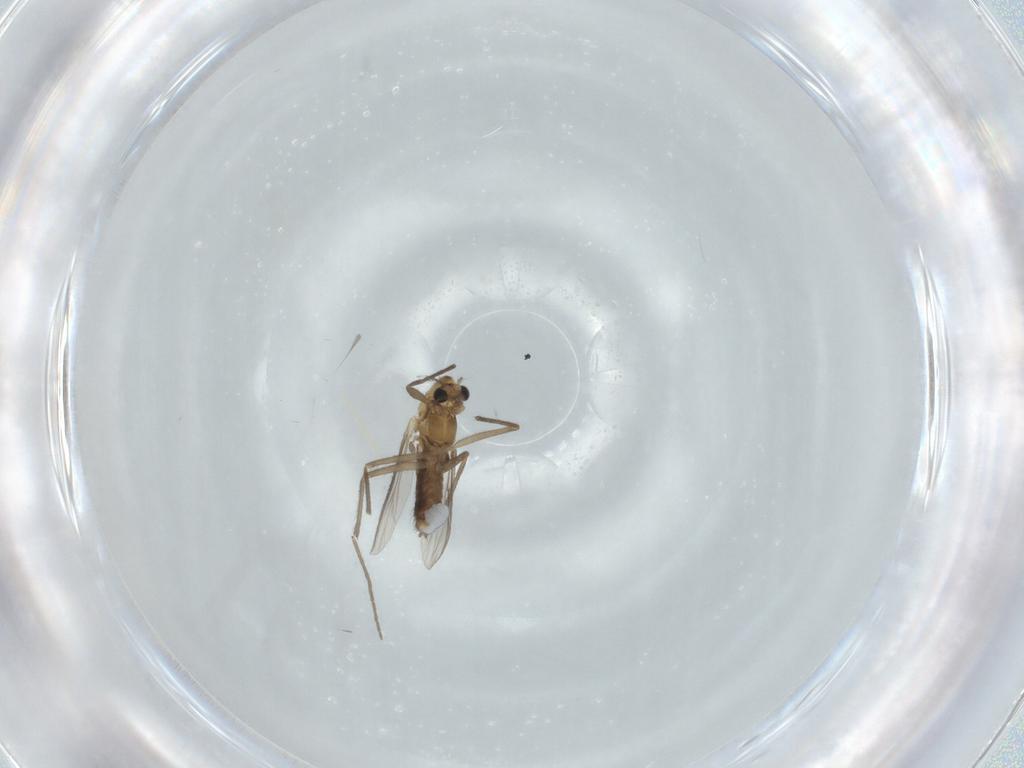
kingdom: Animalia
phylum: Arthropoda
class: Insecta
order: Diptera
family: Chironomidae
